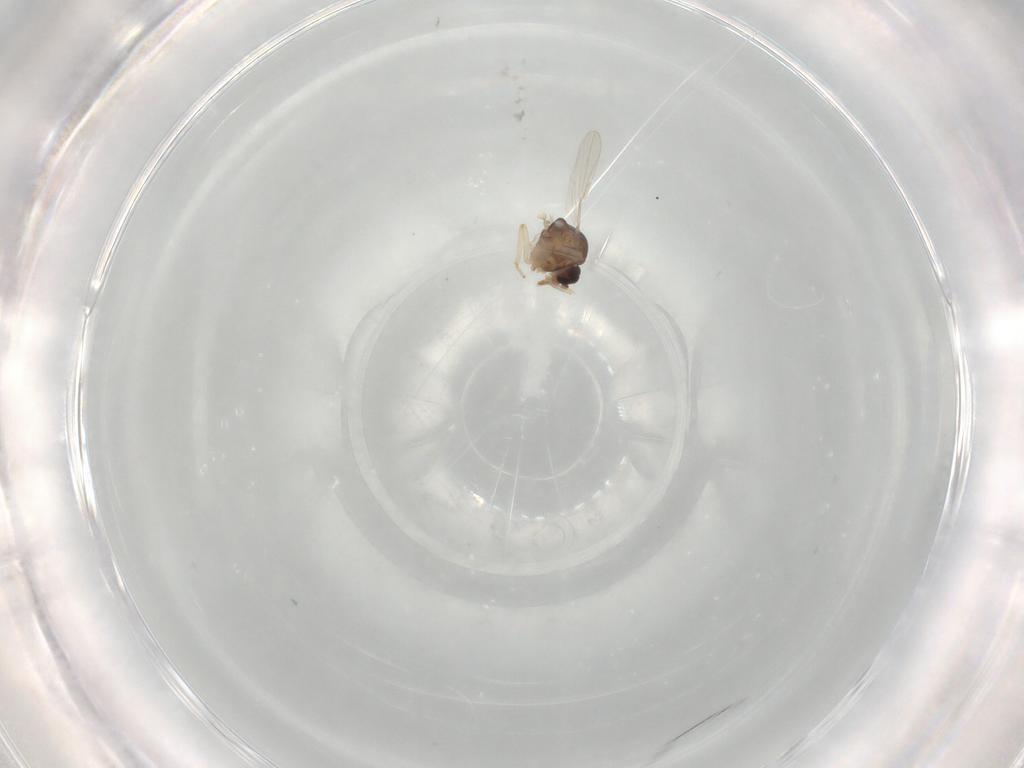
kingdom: Animalia
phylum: Arthropoda
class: Insecta
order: Diptera
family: Ceratopogonidae
